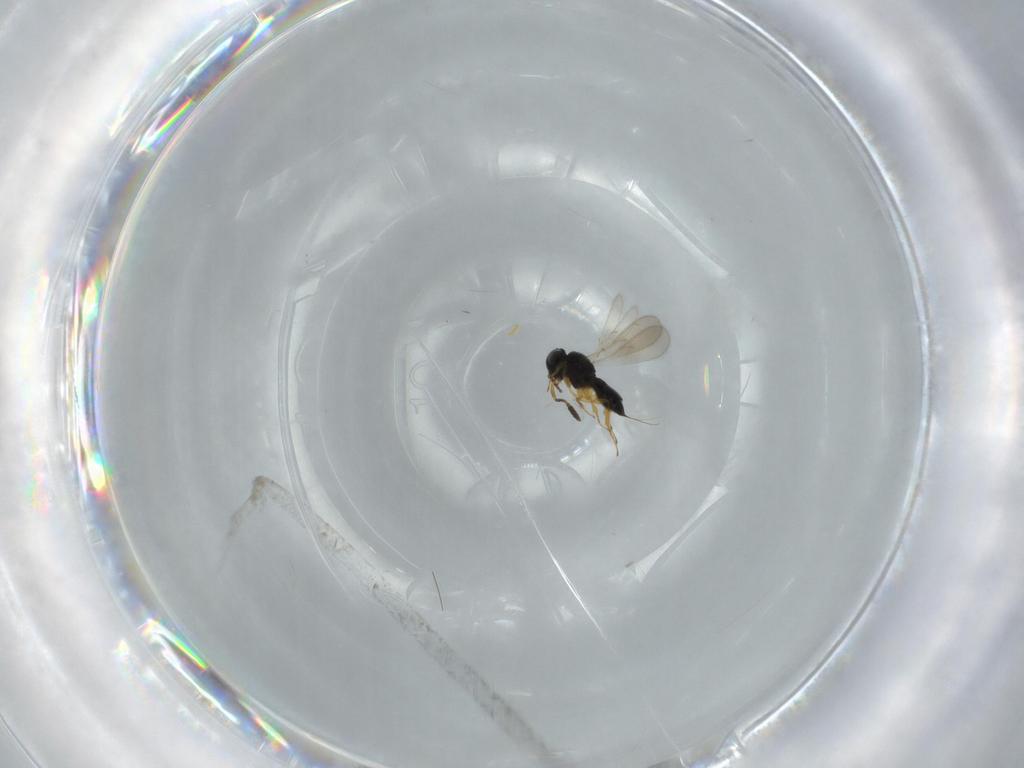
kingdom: Animalia
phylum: Arthropoda
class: Insecta
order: Hymenoptera
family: Scelionidae
